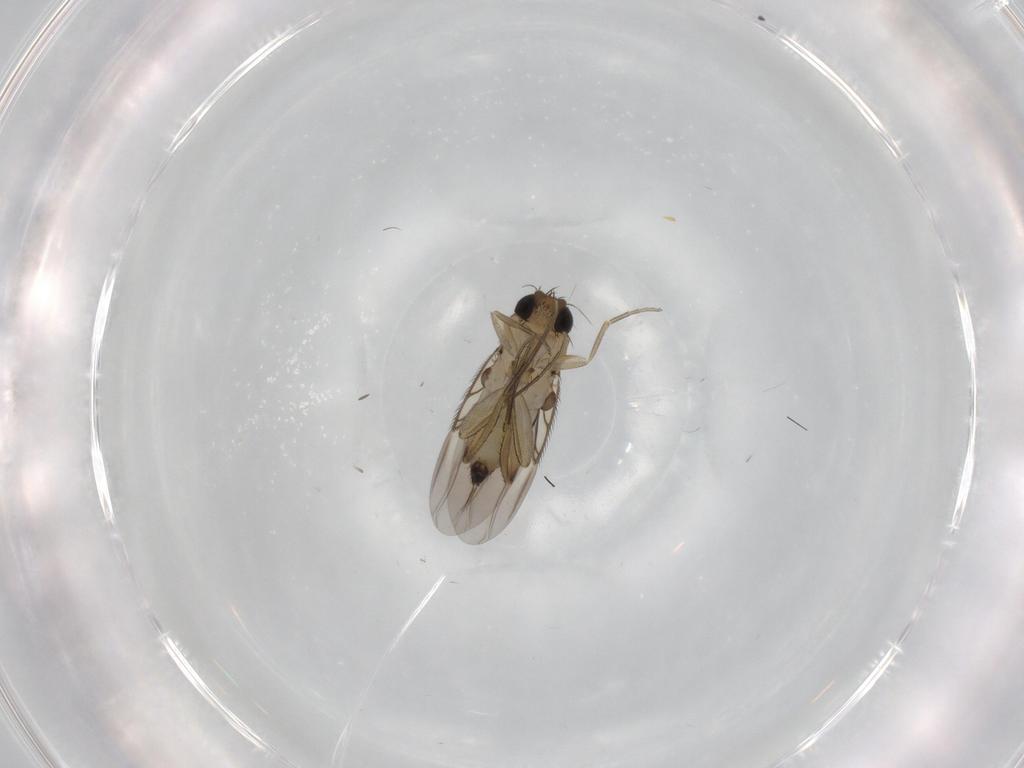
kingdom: Animalia
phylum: Arthropoda
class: Insecta
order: Diptera
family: Phoridae
